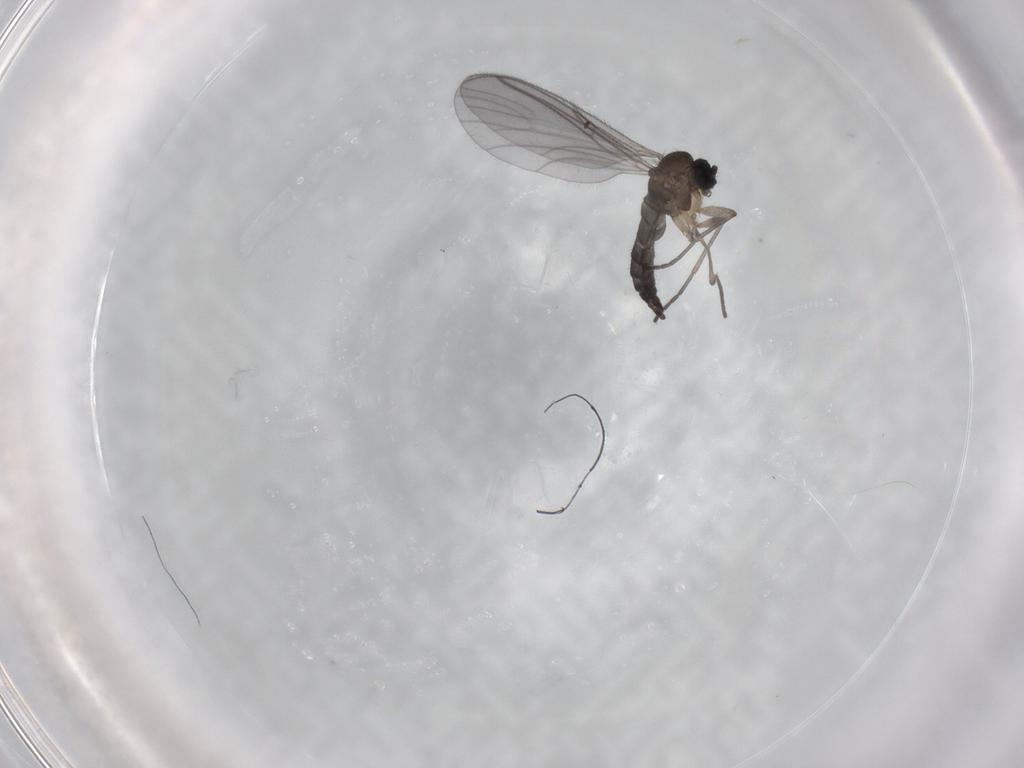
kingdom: Animalia
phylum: Arthropoda
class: Insecta
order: Diptera
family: Sciaridae
